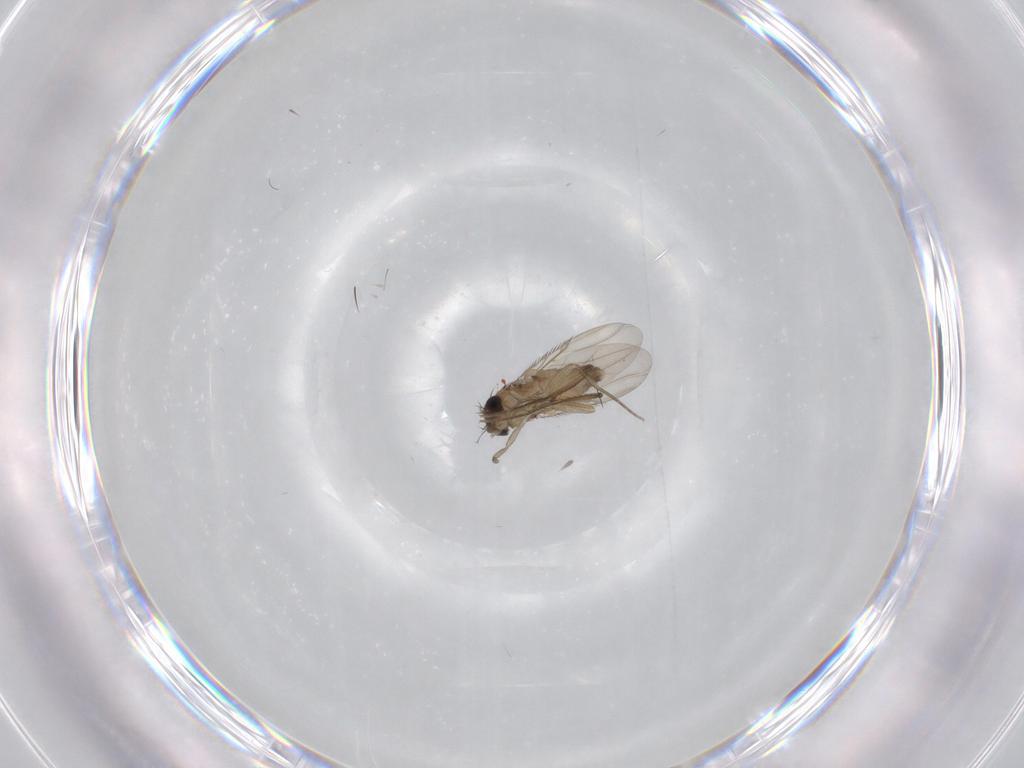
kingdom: Animalia
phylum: Arthropoda
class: Insecta
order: Diptera
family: Phoridae
